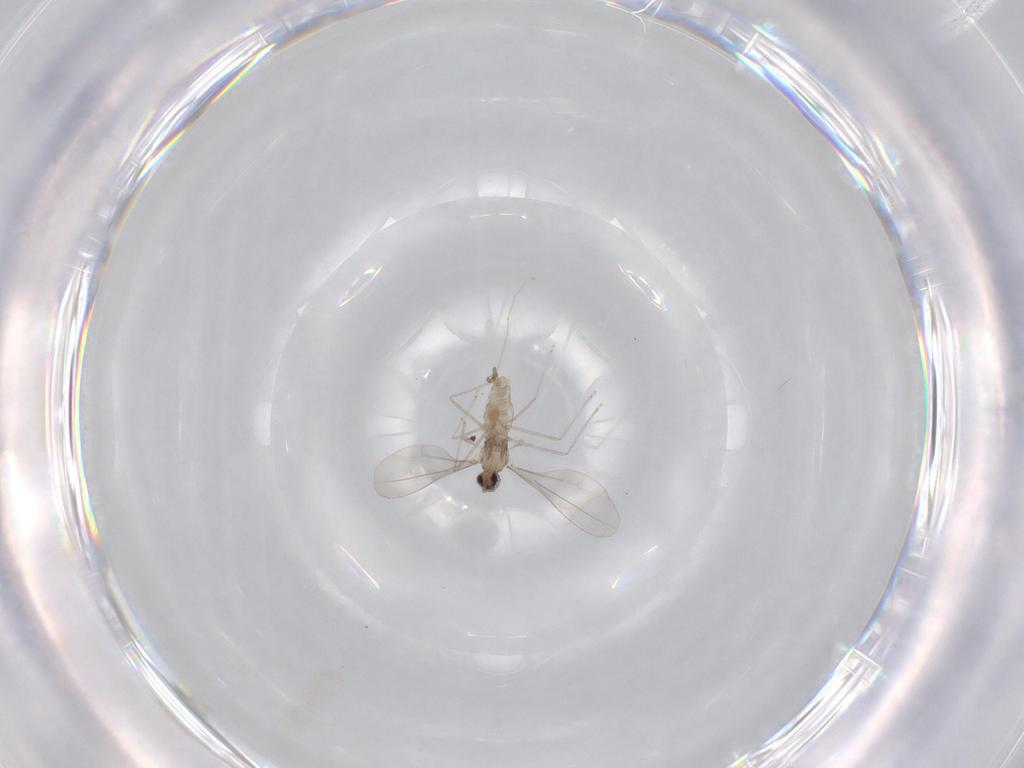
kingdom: Animalia
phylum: Arthropoda
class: Insecta
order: Diptera
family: Cecidomyiidae
